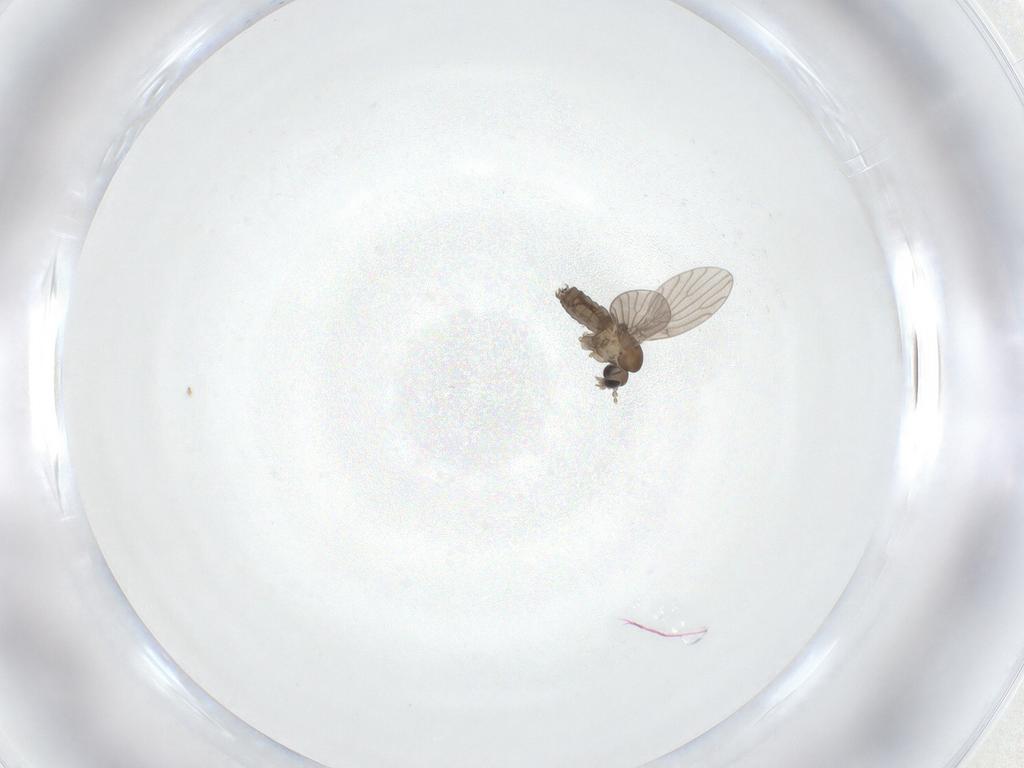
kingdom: Animalia
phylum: Arthropoda
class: Insecta
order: Diptera
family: Psychodidae
